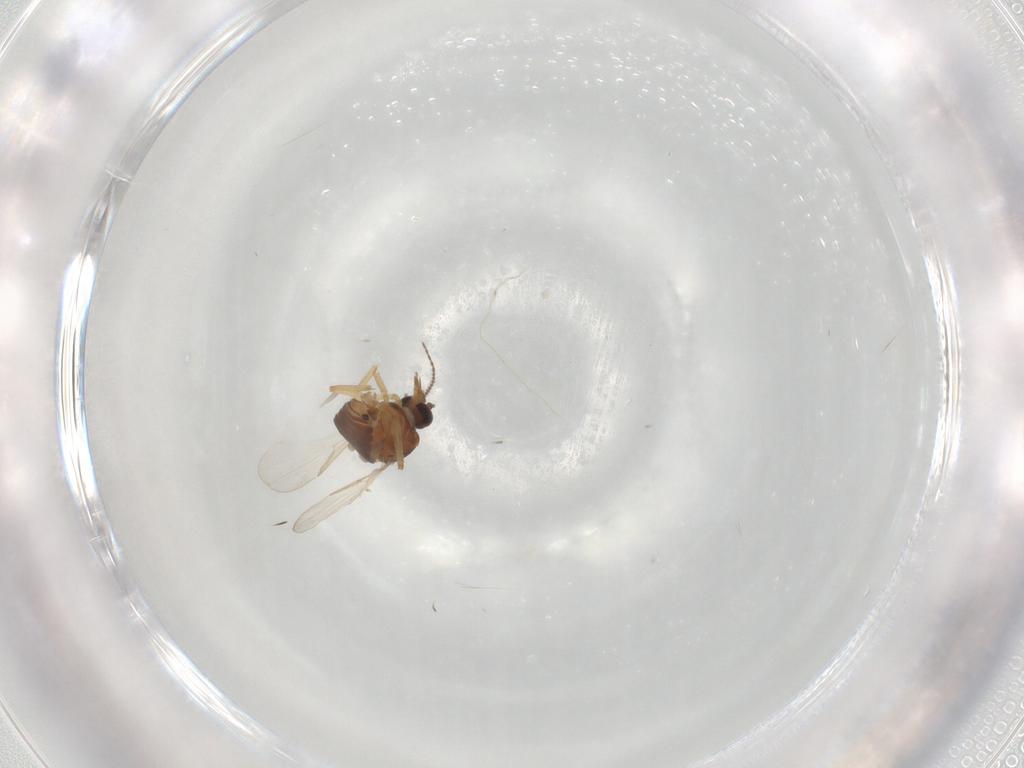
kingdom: Animalia
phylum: Arthropoda
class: Insecta
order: Diptera
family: Ceratopogonidae
